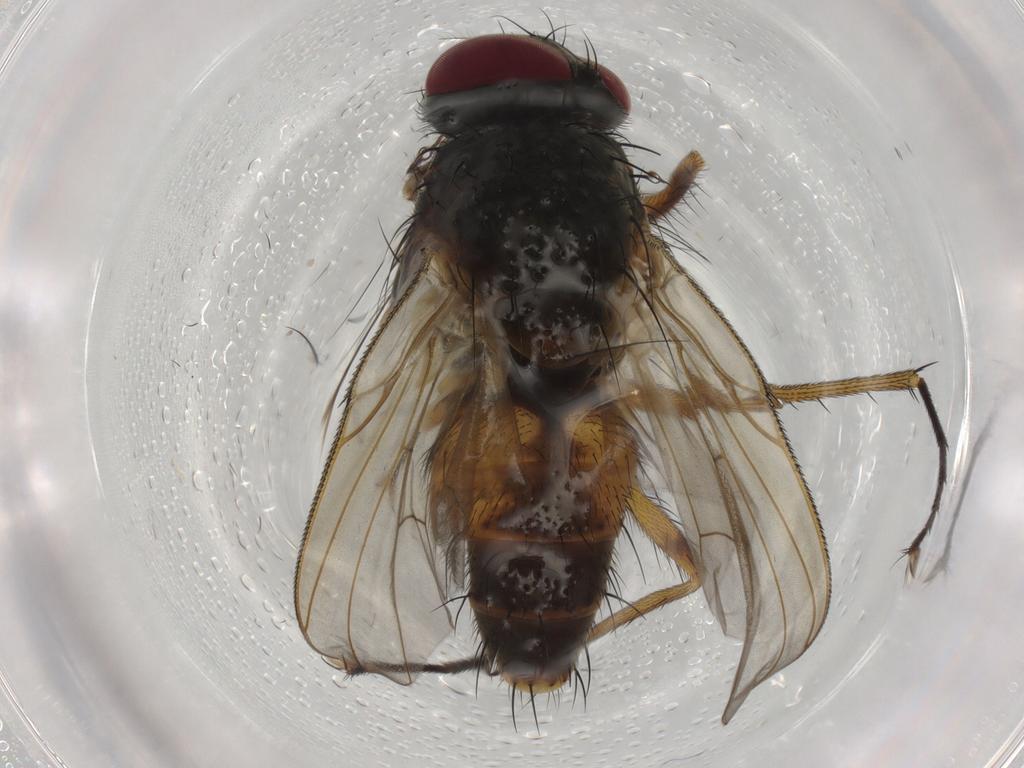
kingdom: Animalia
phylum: Arthropoda
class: Insecta
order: Diptera
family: Muscidae
